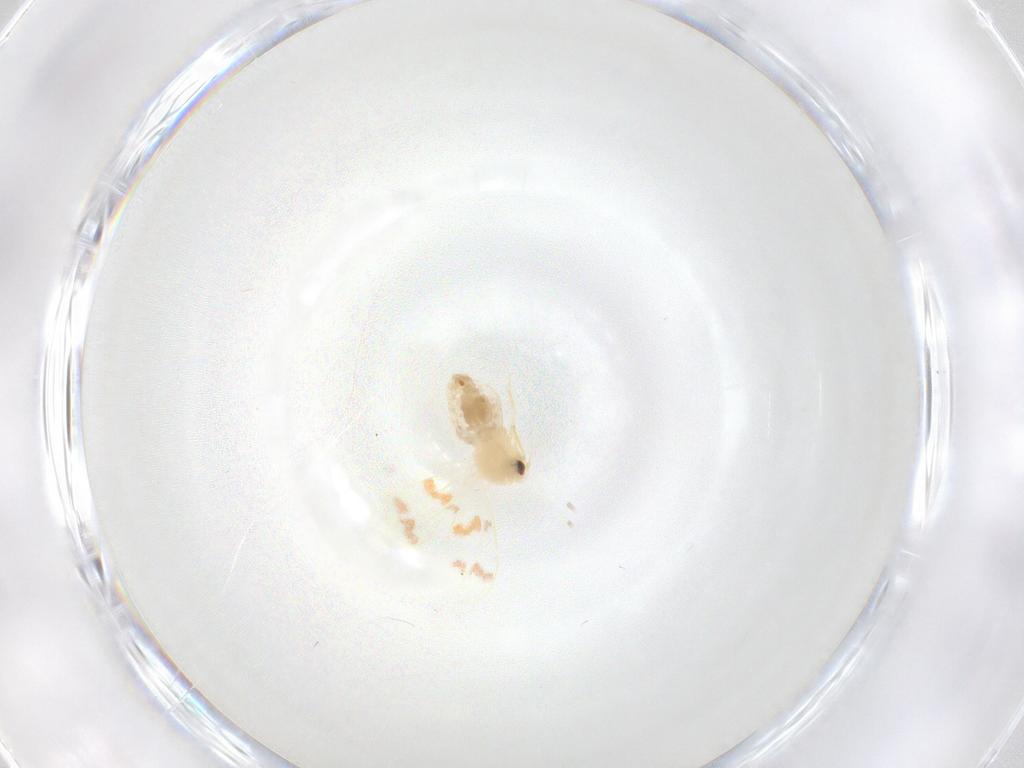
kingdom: Animalia
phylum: Arthropoda
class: Insecta
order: Hemiptera
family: Aleyrodidae
